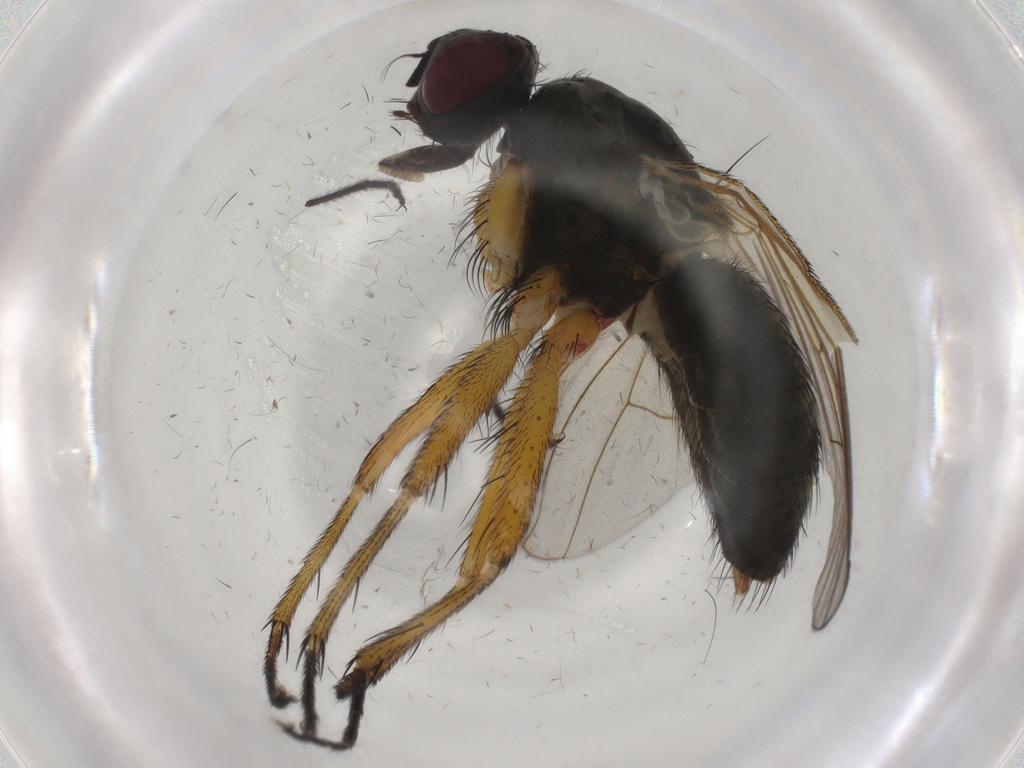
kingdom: Animalia
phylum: Arthropoda
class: Insecta
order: Diptera
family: Muscidae
